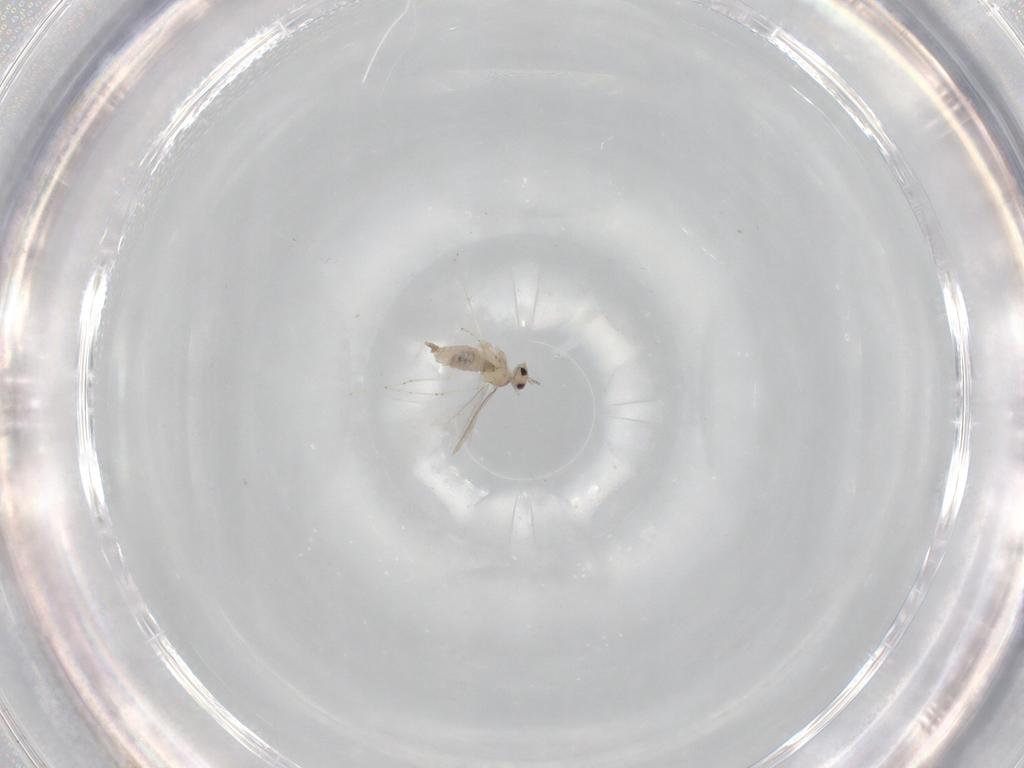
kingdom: Animalia
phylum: Arthropoda
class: Insecta
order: Diptera
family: Cecidomyiidae
